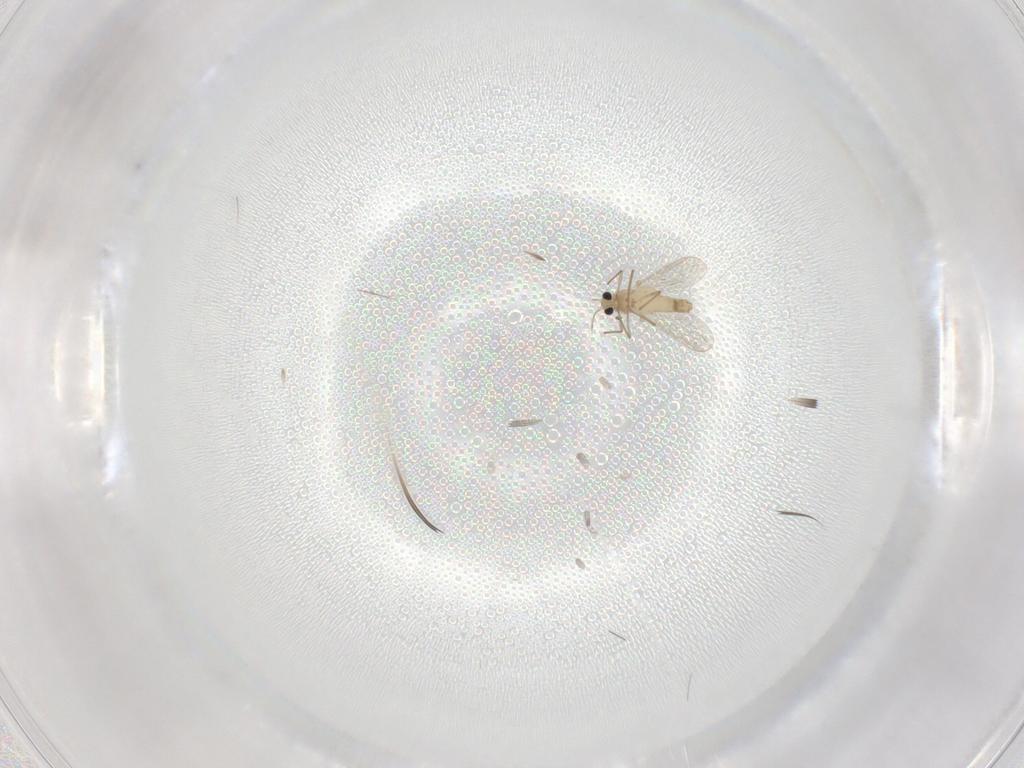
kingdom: Animalia
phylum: Arthropoda
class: Insecta
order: Diptera
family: Chironomidae
